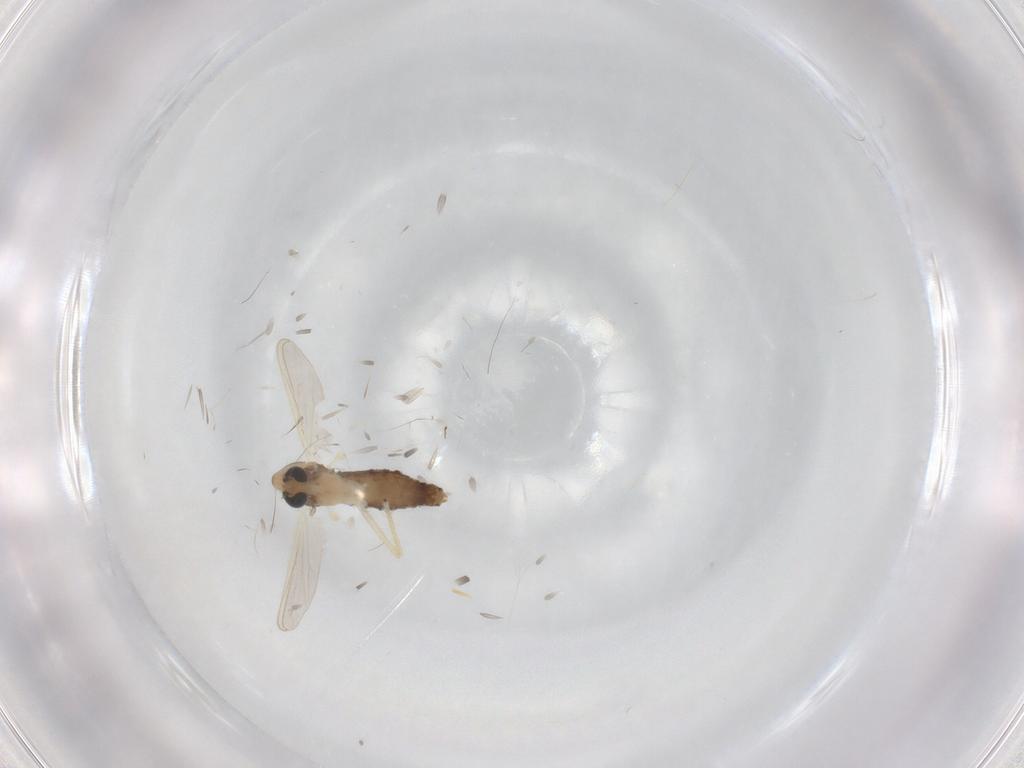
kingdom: Animalia
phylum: Arthropoda
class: Insecta
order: Diptera
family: Chironomidae
